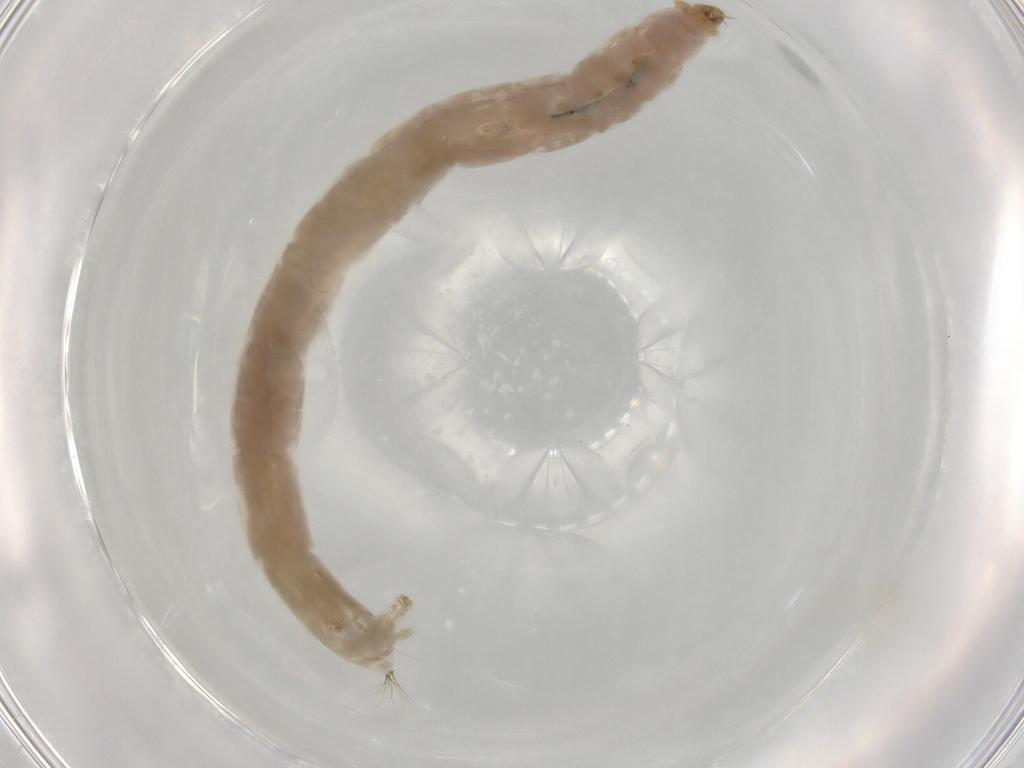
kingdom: Animalia
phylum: Arthropoda
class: Insecta
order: Diptera
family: Chironomidae
